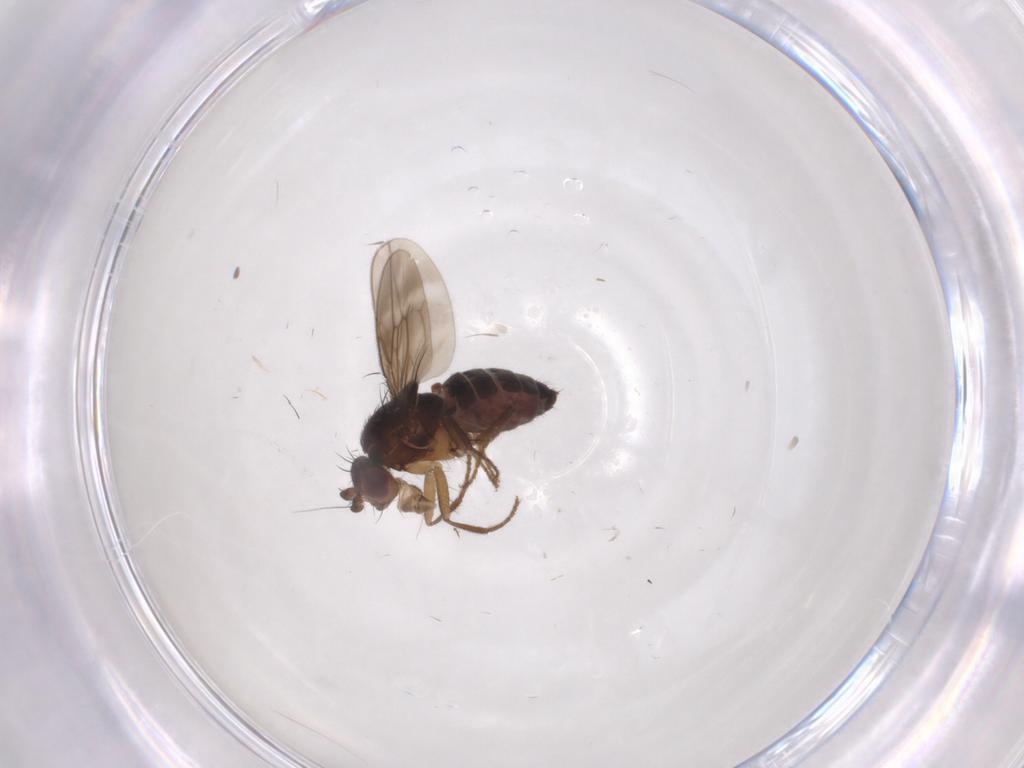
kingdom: Animalia
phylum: Arthropoda
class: Insecta
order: Diptera
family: Sphaeroceridae
